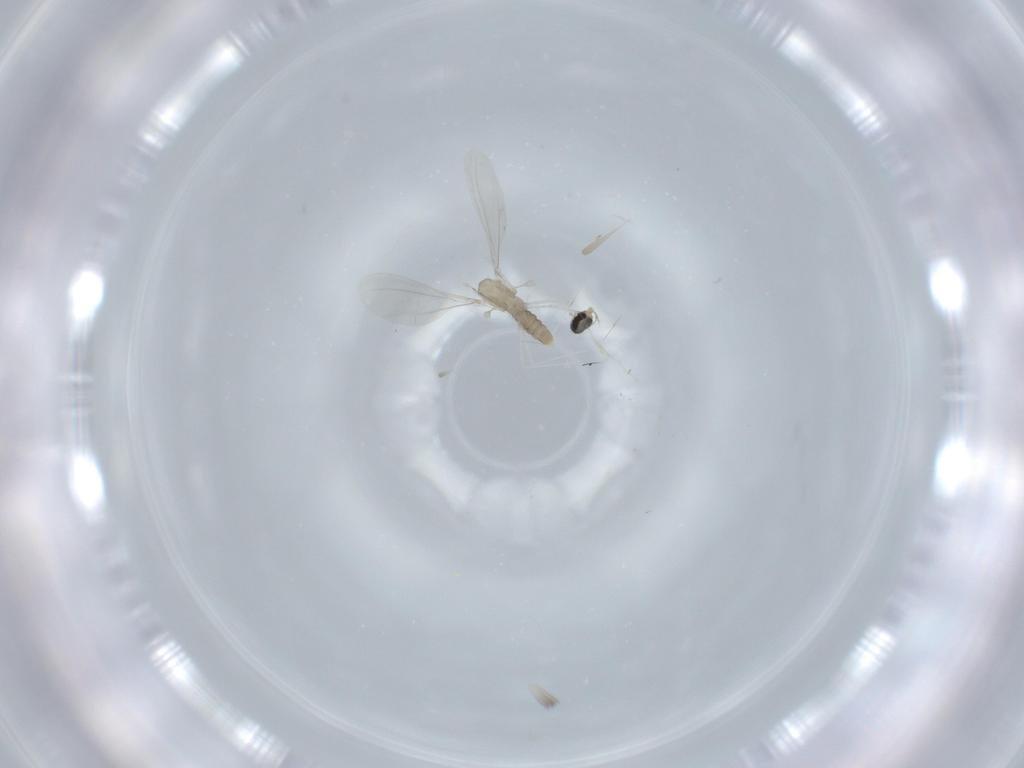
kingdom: Animalia
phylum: Arthropoda
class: Insecta
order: Diptera
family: Cecidomyiidae
